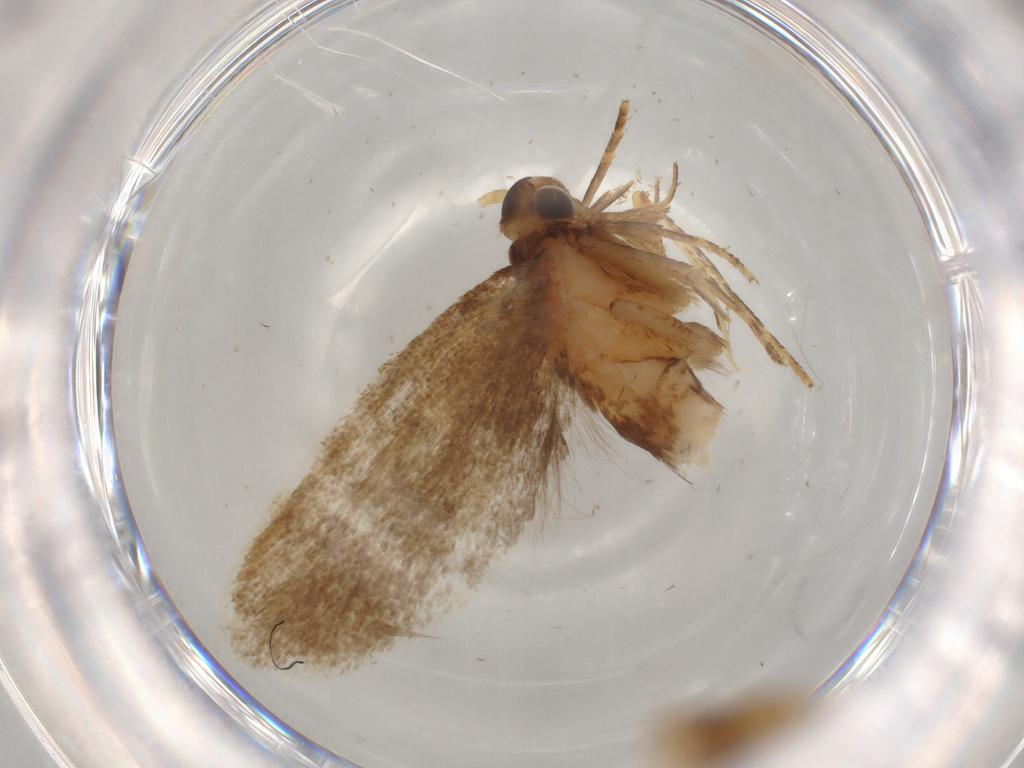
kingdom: Animalia
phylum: Arthropoda
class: Insecta
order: Lepidoptera
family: Lecithoceridae
